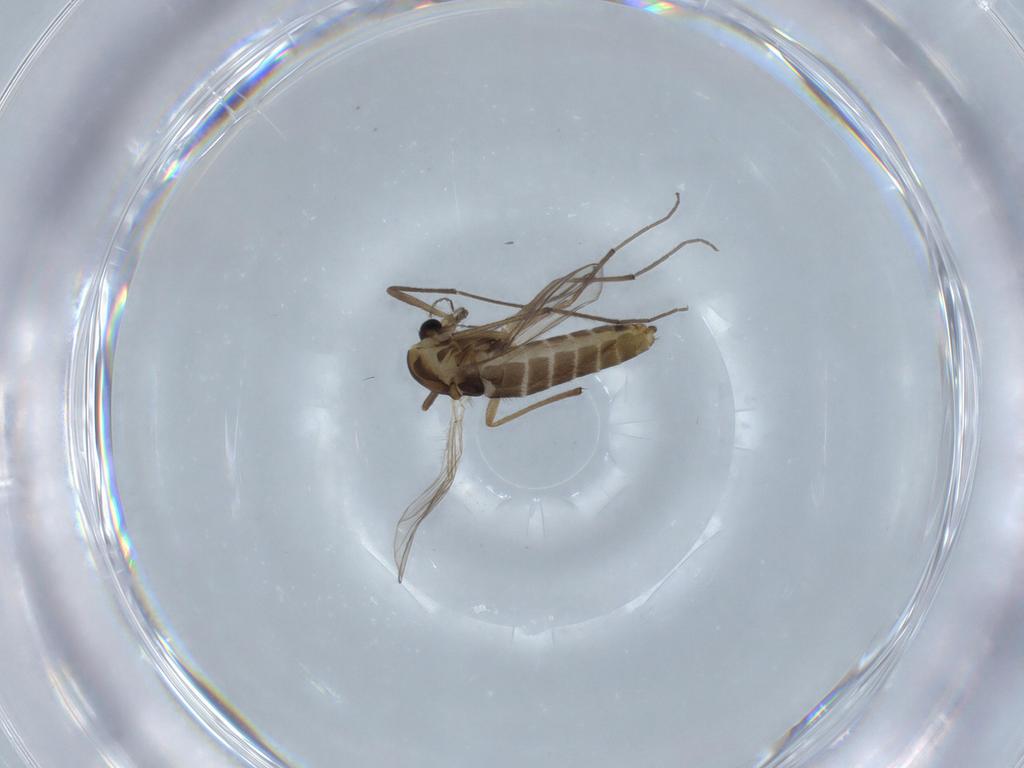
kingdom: Animalia
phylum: Arthropoda
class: Insecta
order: Diptera
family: Chironomidae
